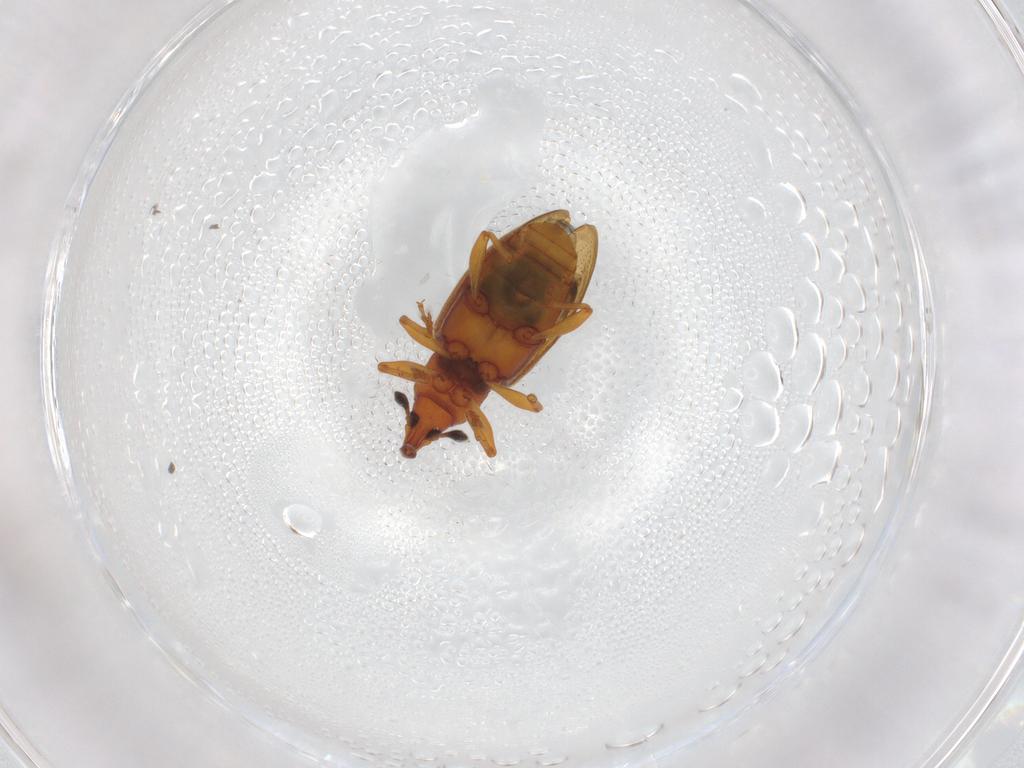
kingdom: Animalia
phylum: Arthropoda
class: Insecta
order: Coleoptera
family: Curculionidae
